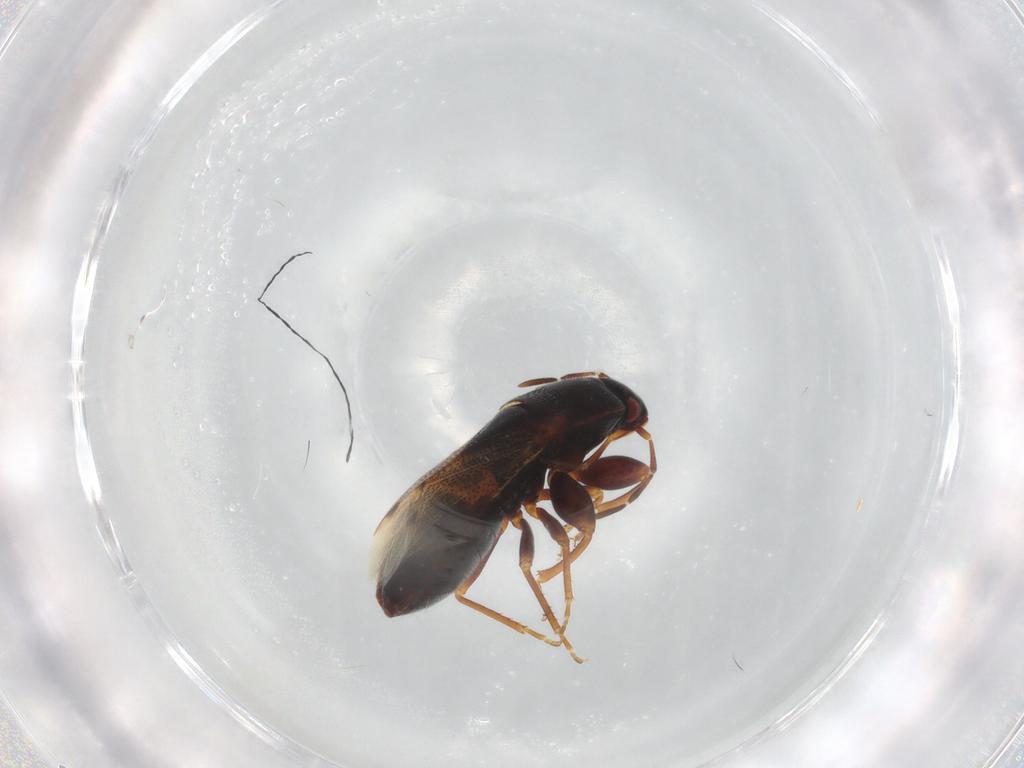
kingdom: Animalia
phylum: Arthropoda
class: Insecta
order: Hemiptera
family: Rhyparochromidae
